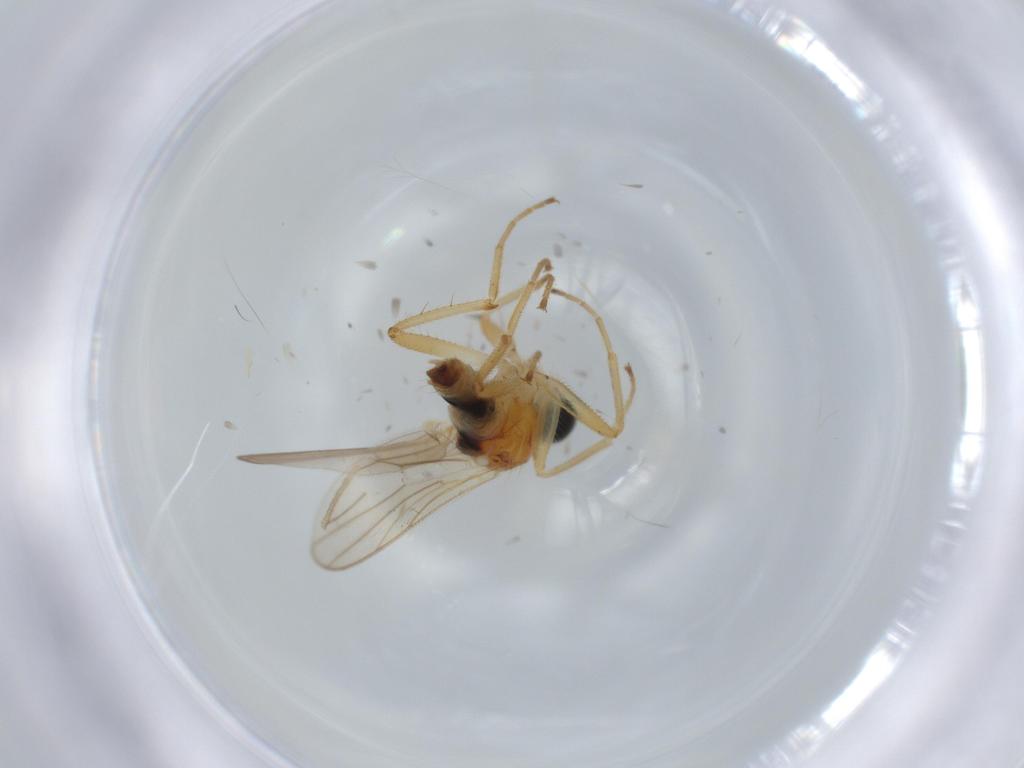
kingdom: Animalia
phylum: Arthropoda
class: Insecta
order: Diptera
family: Hybotidae
